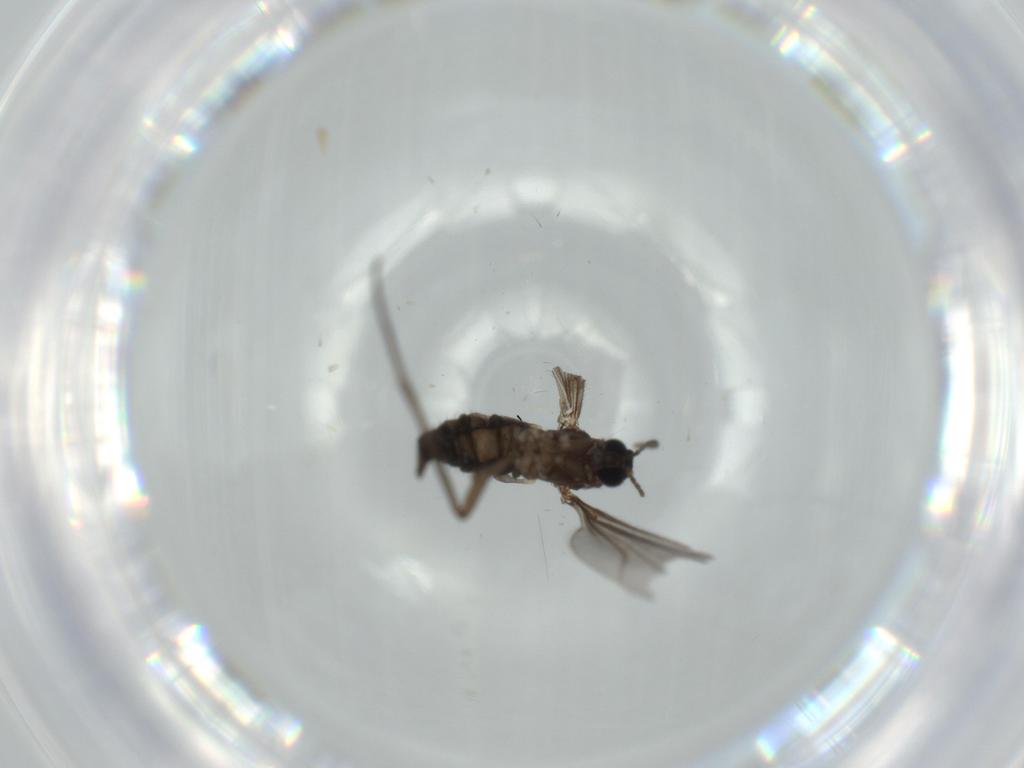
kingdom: Animalia
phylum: Arthropoda
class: Insecta
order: Diptera
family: Sciaridae
